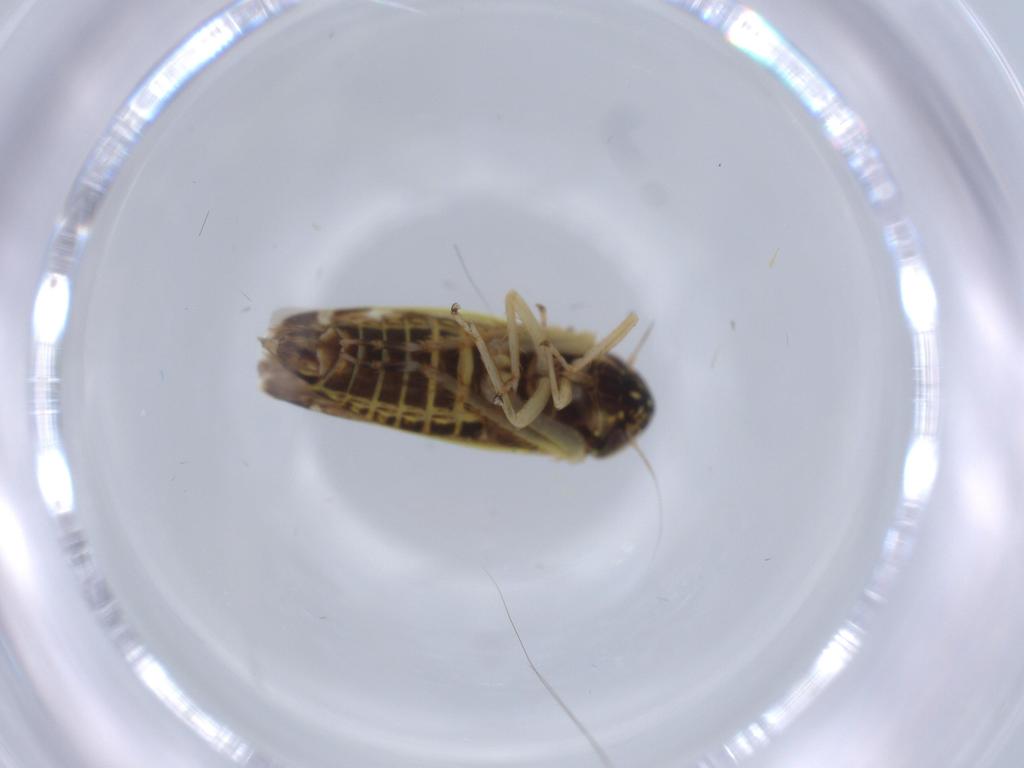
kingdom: Animalia
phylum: Arthropoda
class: Insecta
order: Hemiptera
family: Cicadellidae
